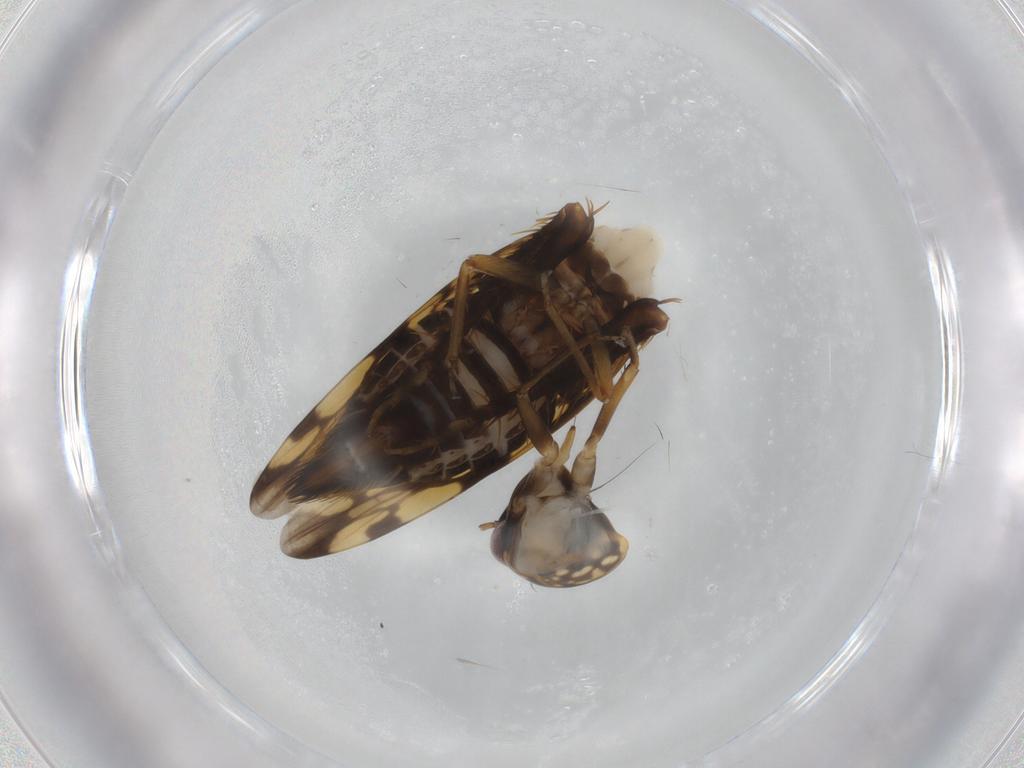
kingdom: Animalia
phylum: Arthropoda
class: Insecta
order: Hemiptera
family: Cicadellidae
